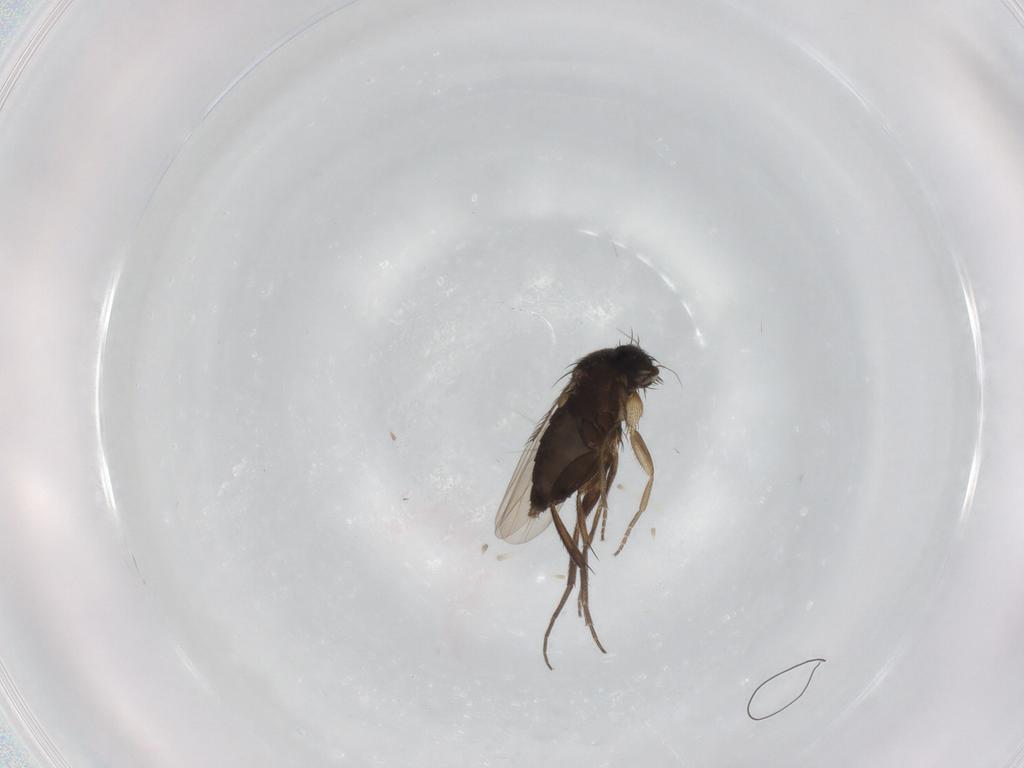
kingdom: Animalia
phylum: Arthropoda
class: Insecta
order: Diptera
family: Phoridae
